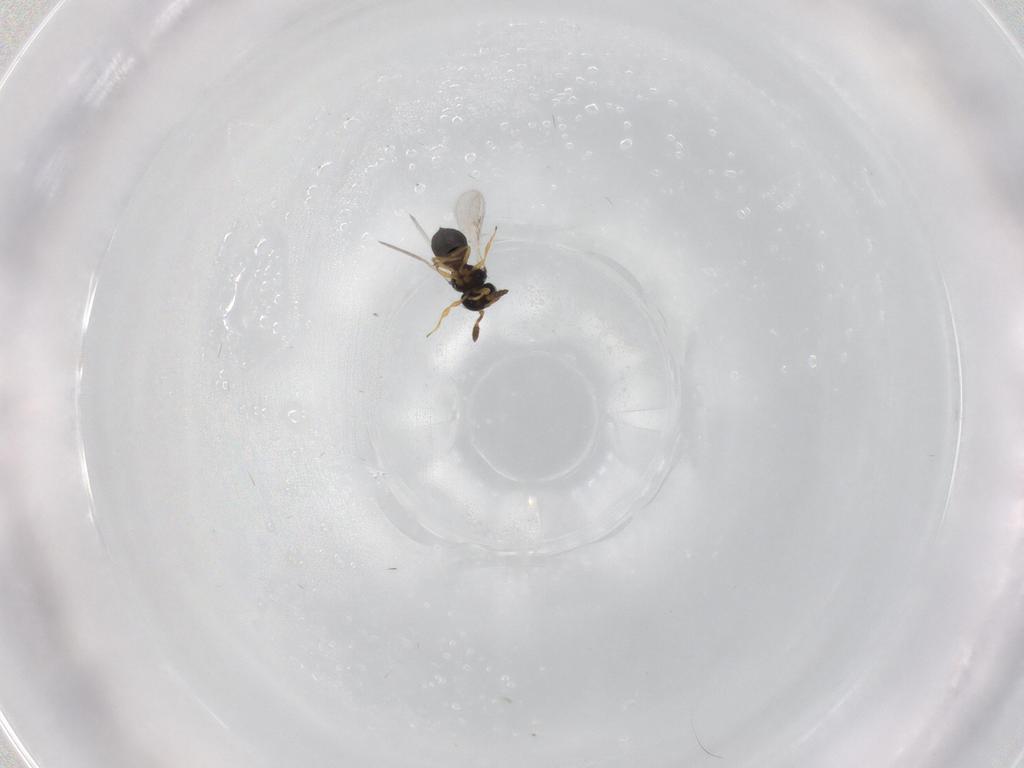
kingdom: Animalia
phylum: Arthropoda
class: Insecta
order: Hymenoptera
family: Scelionidae
